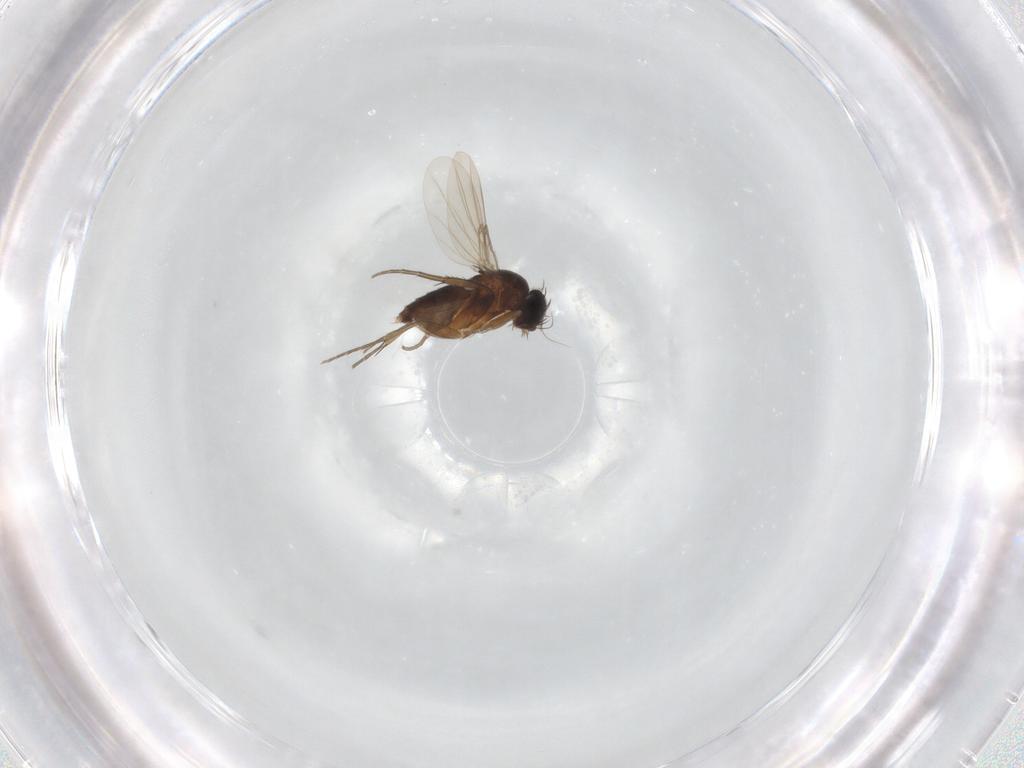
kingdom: Animalia
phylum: Arthropoda
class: Insecta
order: Diptera
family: Phoridae
